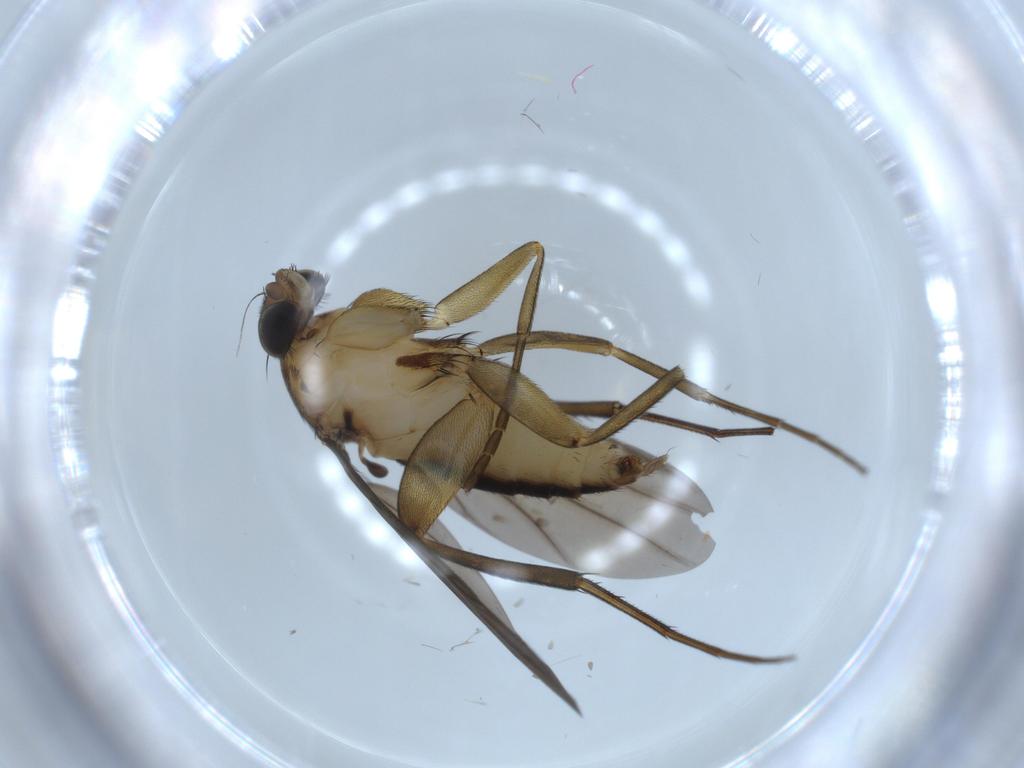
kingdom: Animalia
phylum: Arthropoda
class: Insecta
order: Diptera
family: Phoridae
